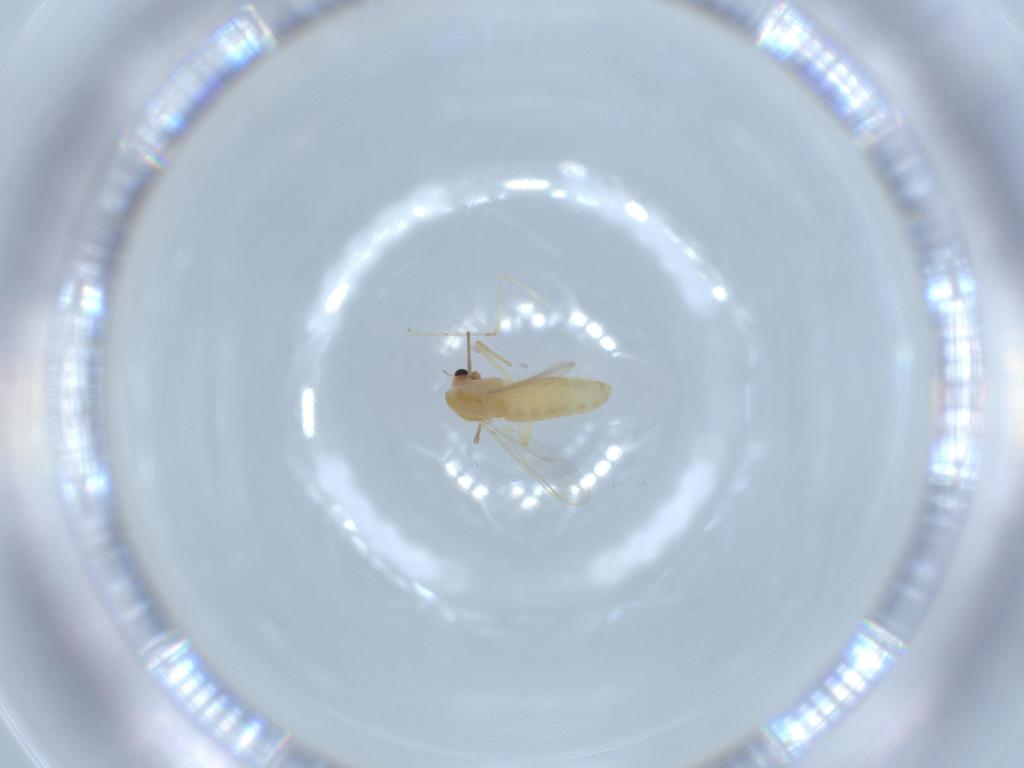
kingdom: Animalia
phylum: Arthropoda
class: Insecta
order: Diptera
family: Chironomidae
